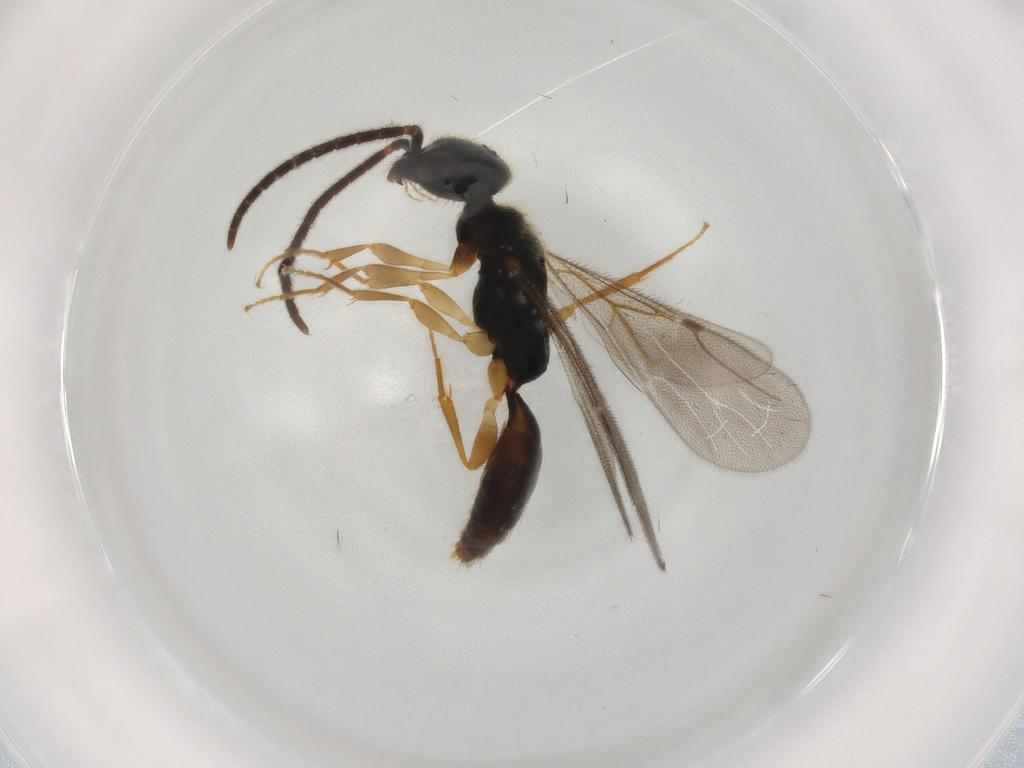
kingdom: Animalia
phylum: Arthropoda
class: Insecta
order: Hymenoptera
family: Bethylidae
